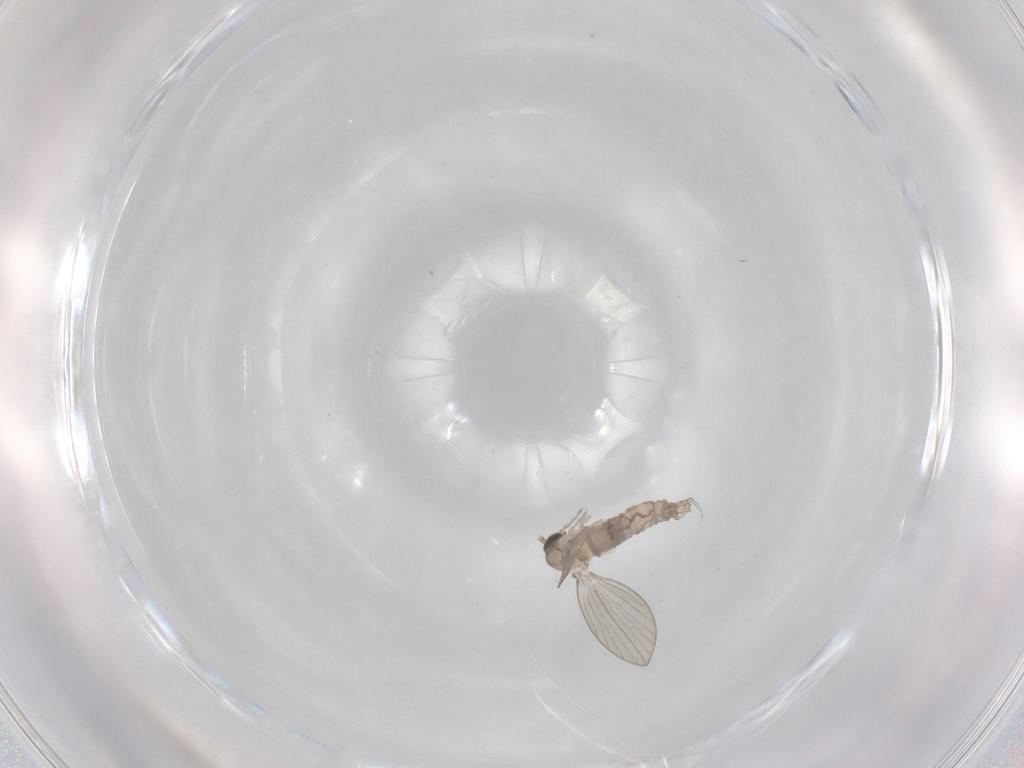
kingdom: Animalia
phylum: Arthropoda
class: Insecta
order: Diptera
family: Psychodidae
